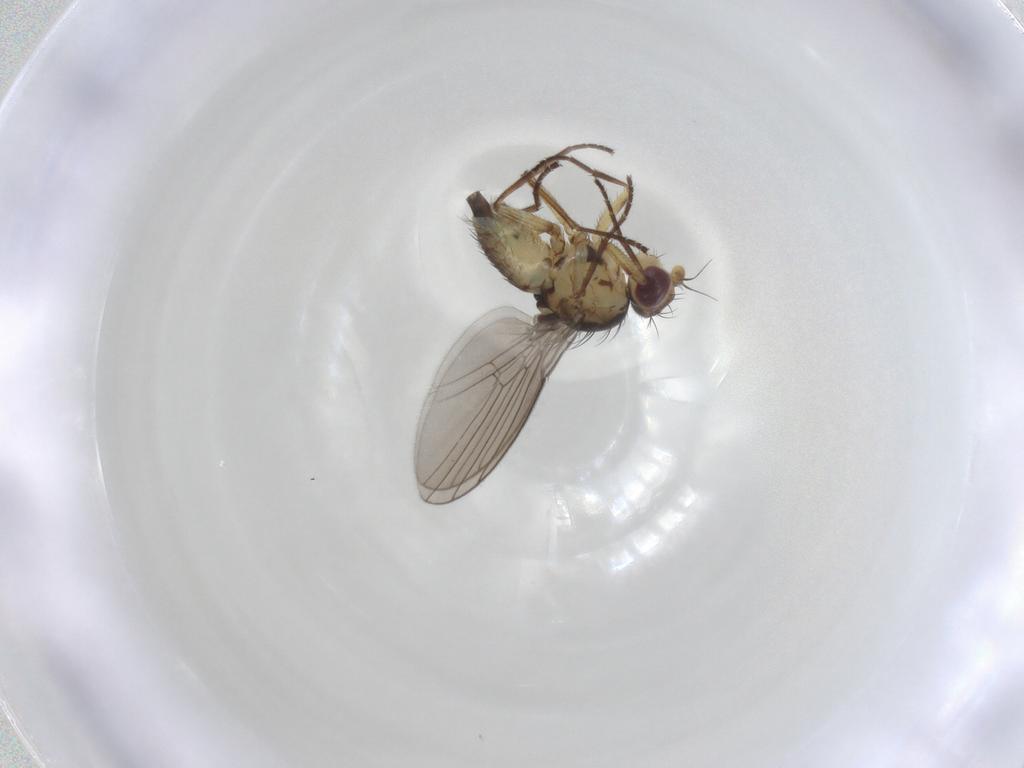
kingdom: Animalia
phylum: Arthropoda
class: Insecta
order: Diptera
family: Agromyzidae
